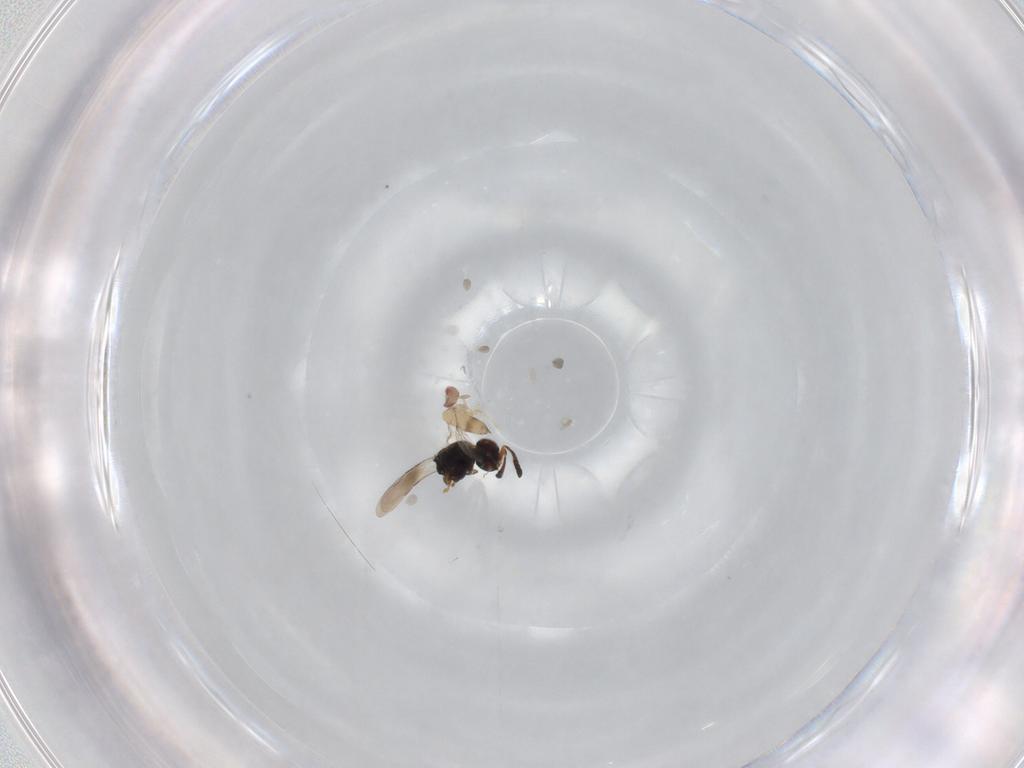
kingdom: Animalia
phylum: Arthropoda
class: Insecta
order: Hymenoptera
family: Trichogrammatidae
